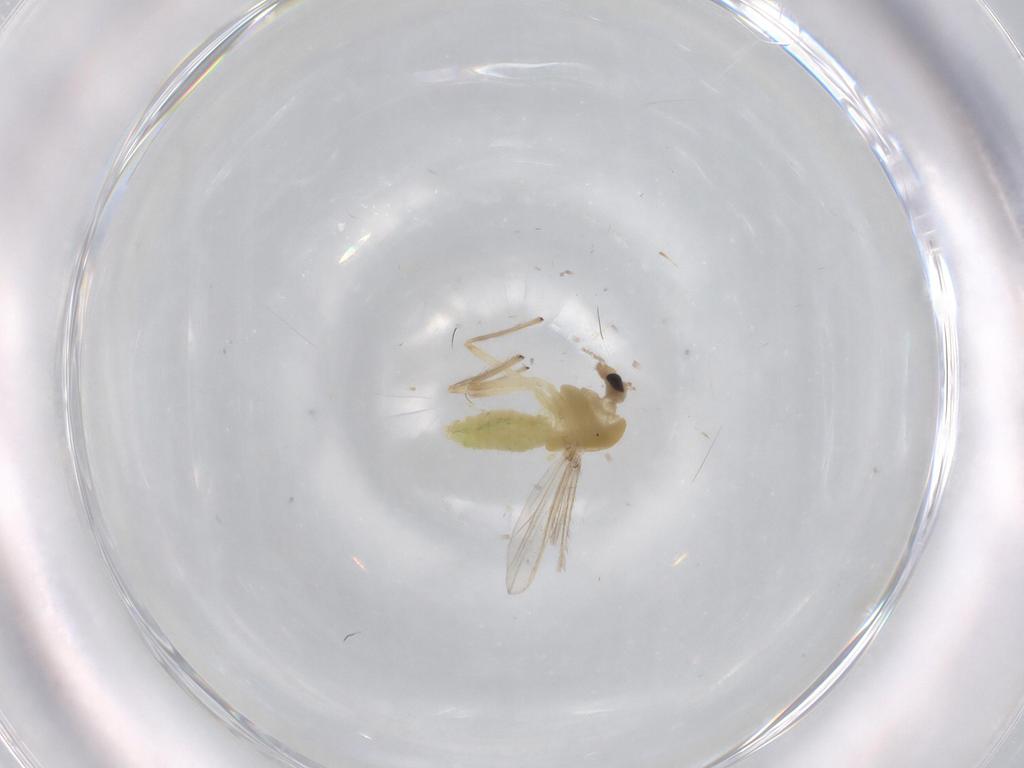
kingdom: Animalia
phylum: Arthropoda
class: Insecta
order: Diptera
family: Chironomidae
